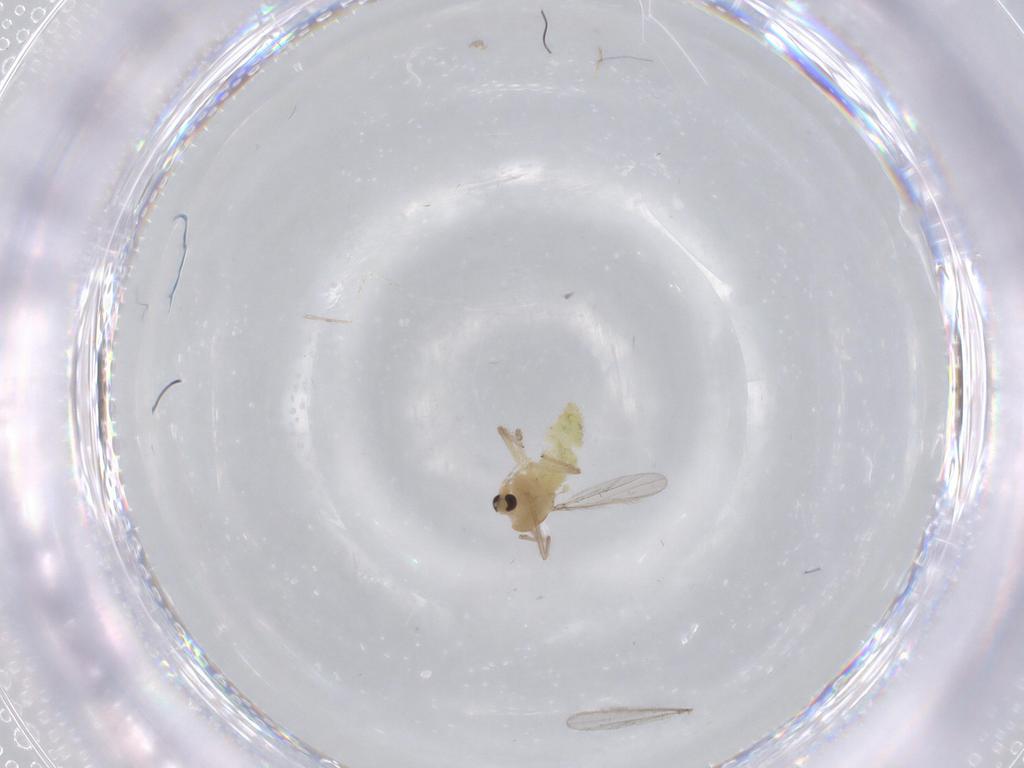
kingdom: Animalia
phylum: Arthropoda
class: Insecta
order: Diptera
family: Chironomidae
